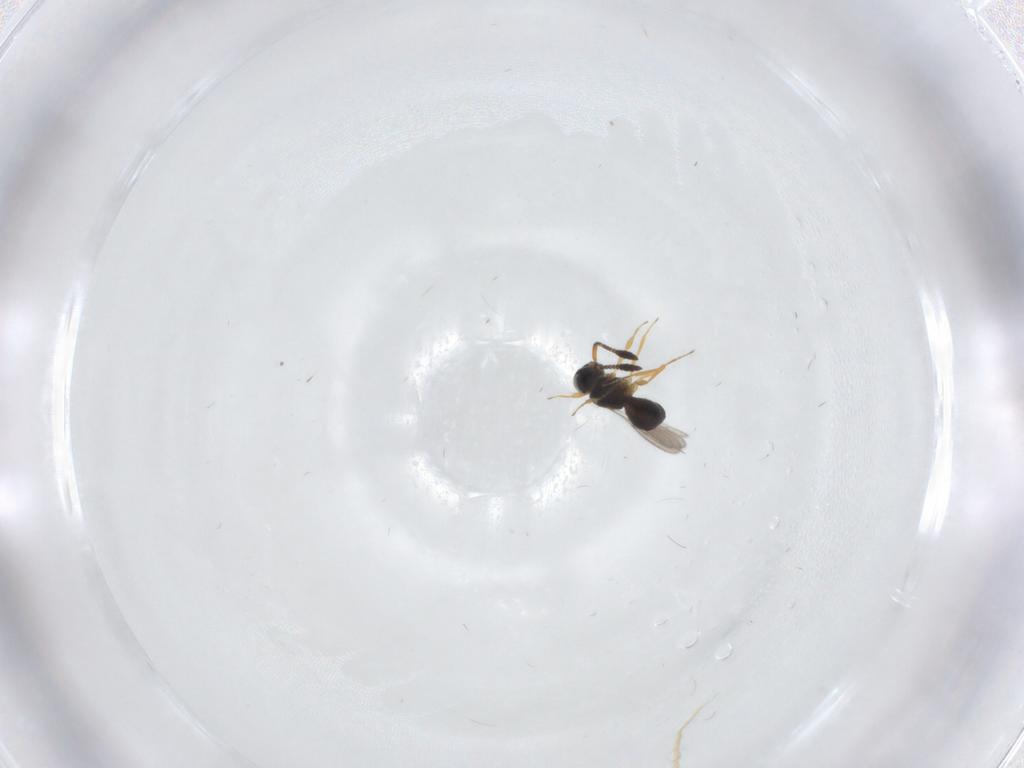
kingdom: Animalia
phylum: Arthropoda
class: Insecta
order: Hymenoptera
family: Scelionidae
